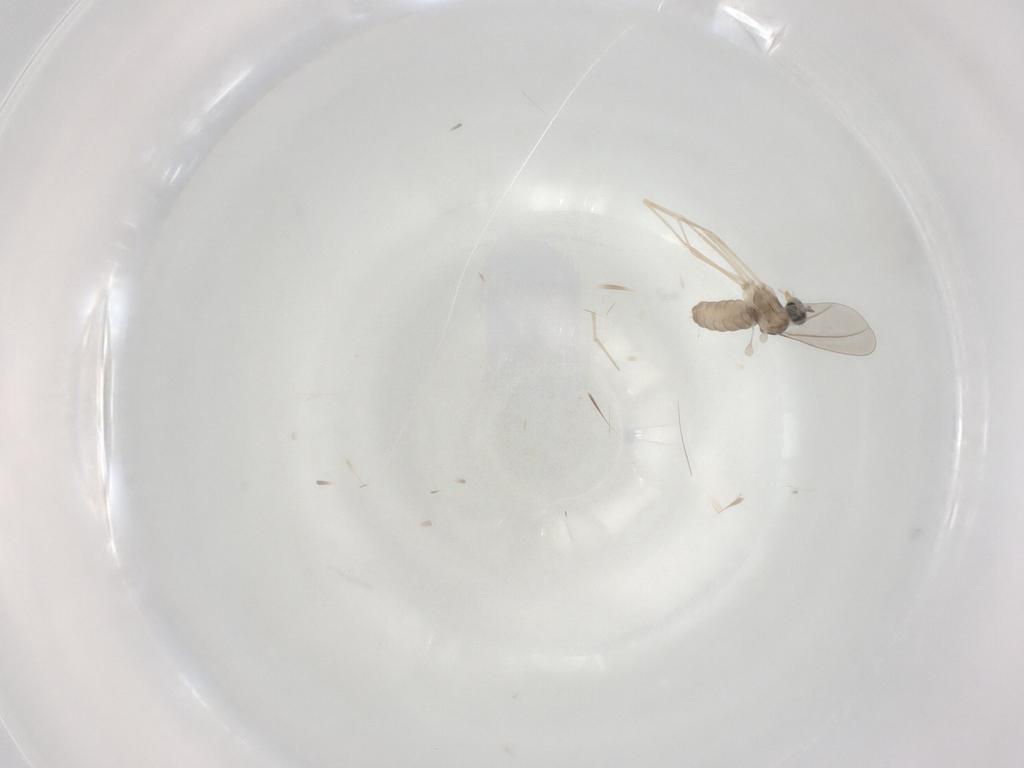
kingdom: Animalia
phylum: Arthropoda
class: Insecta
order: Diptera
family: Cecidomyiidae
